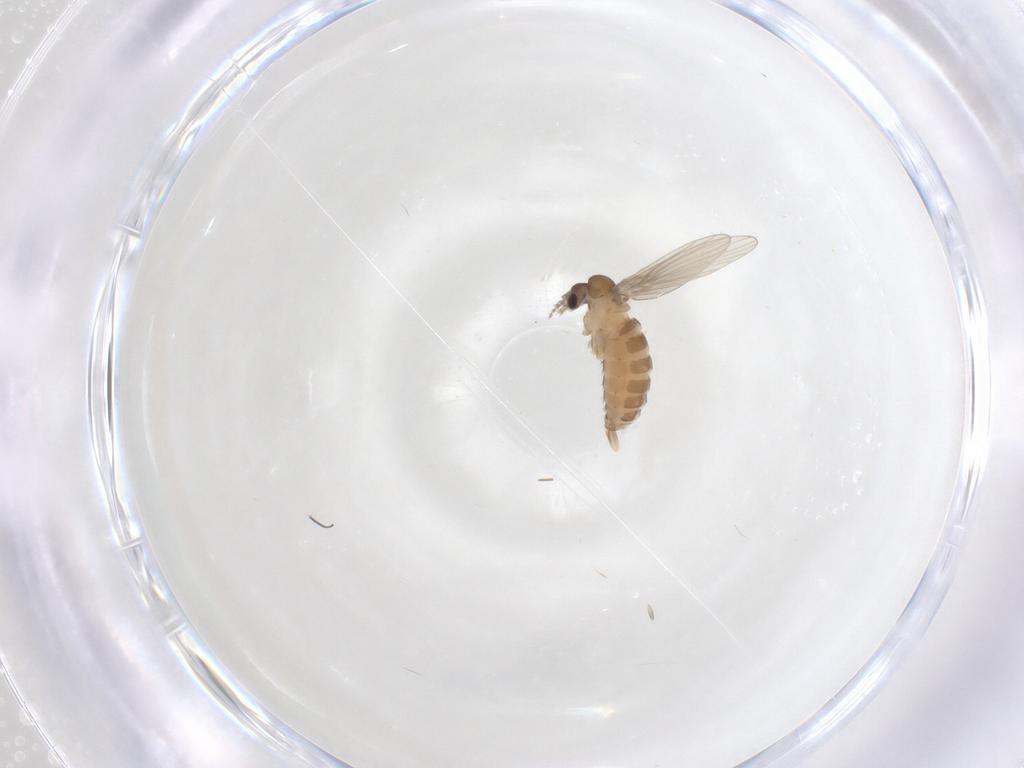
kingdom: Animalia
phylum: Arthropoda
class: Insecta
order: Diptera
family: Psychodidae
